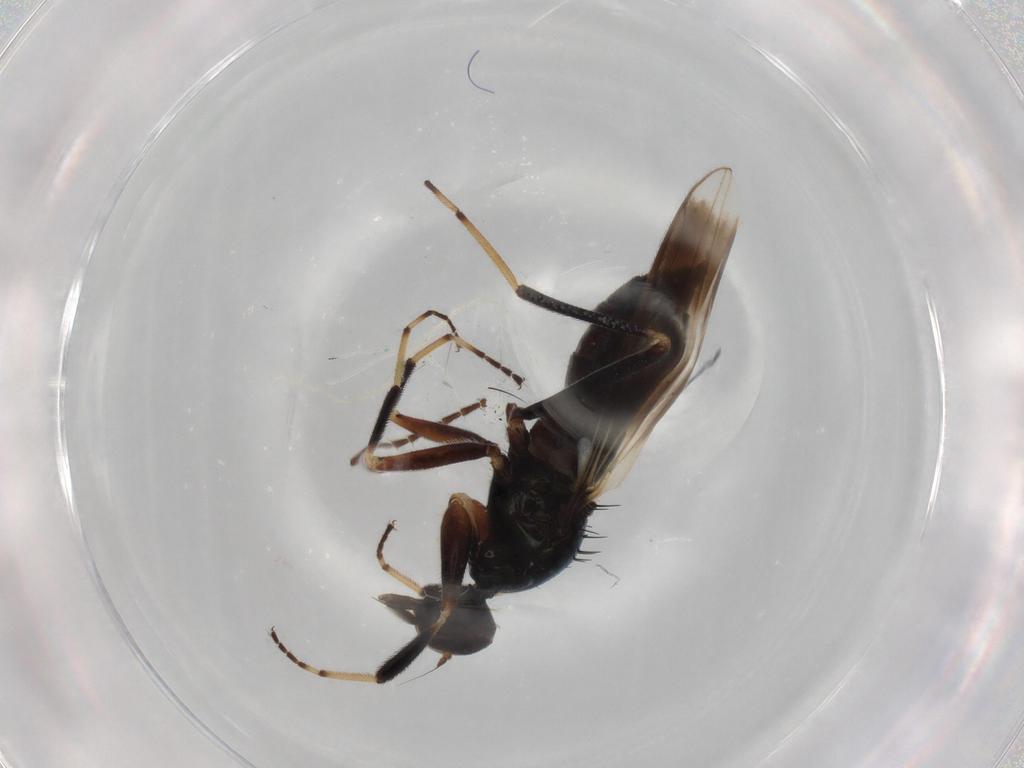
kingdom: Animalia
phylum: Arthropoda
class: Insecta
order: Diptera
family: Hybotidae
